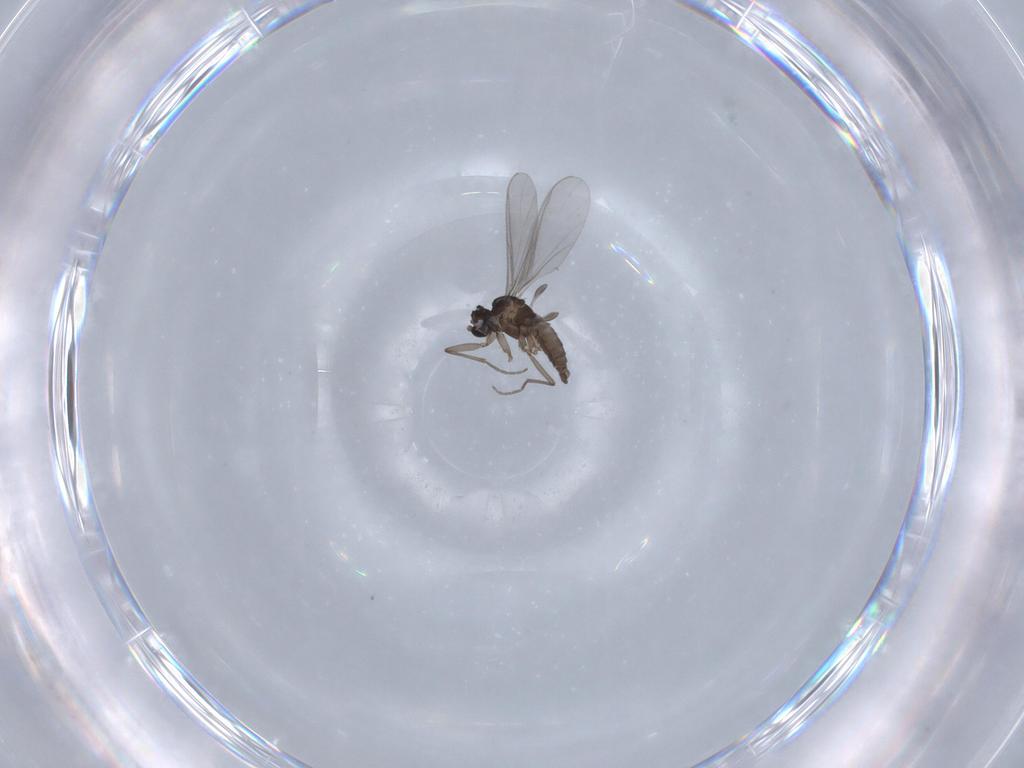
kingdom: Animalia
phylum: Arthropoda
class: Insecta
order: Diptera
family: Sciaridae
